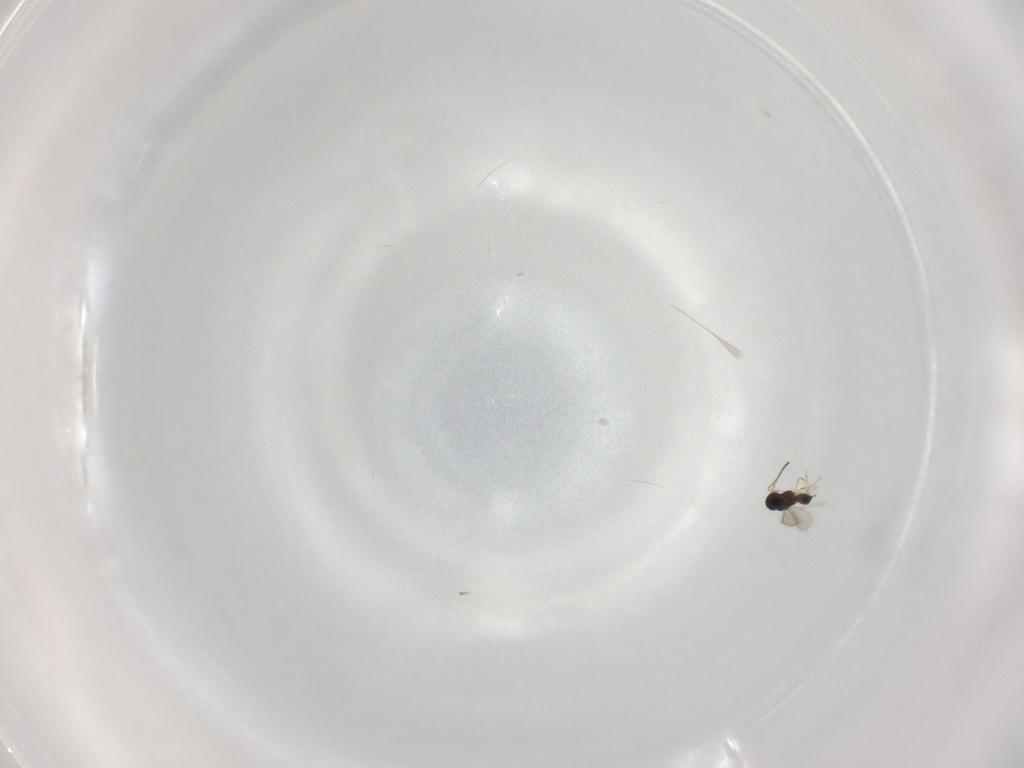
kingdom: Animalia
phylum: Arthropoda
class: Insecta
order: Hymenoptera
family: Scelionidae
